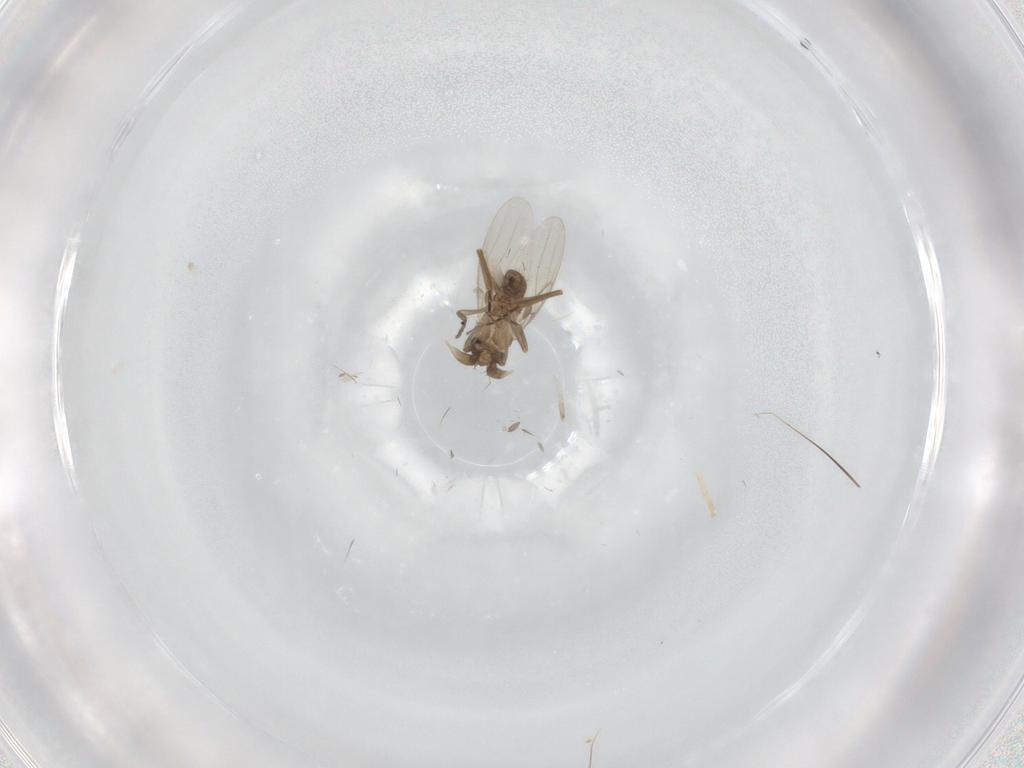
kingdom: Animalia
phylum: Arthropoda
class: Insecta
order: Diptera
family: Phoridae
